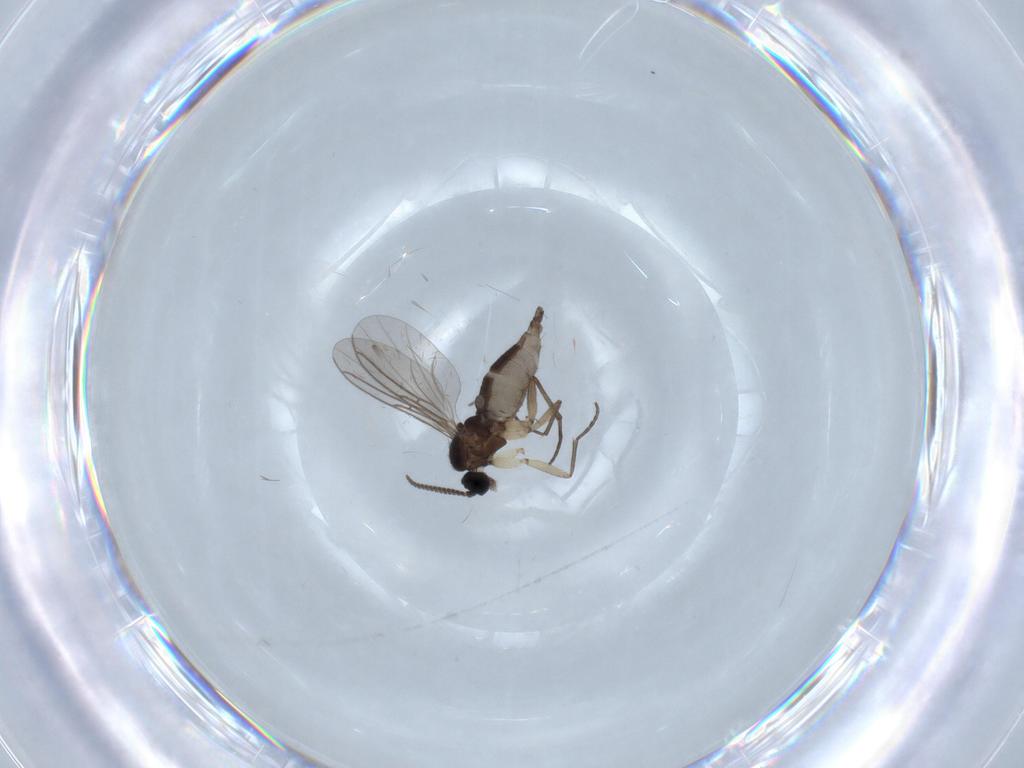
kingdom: Animalia
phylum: Arthropoda
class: Insecta
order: Diptera
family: Sciaridae
